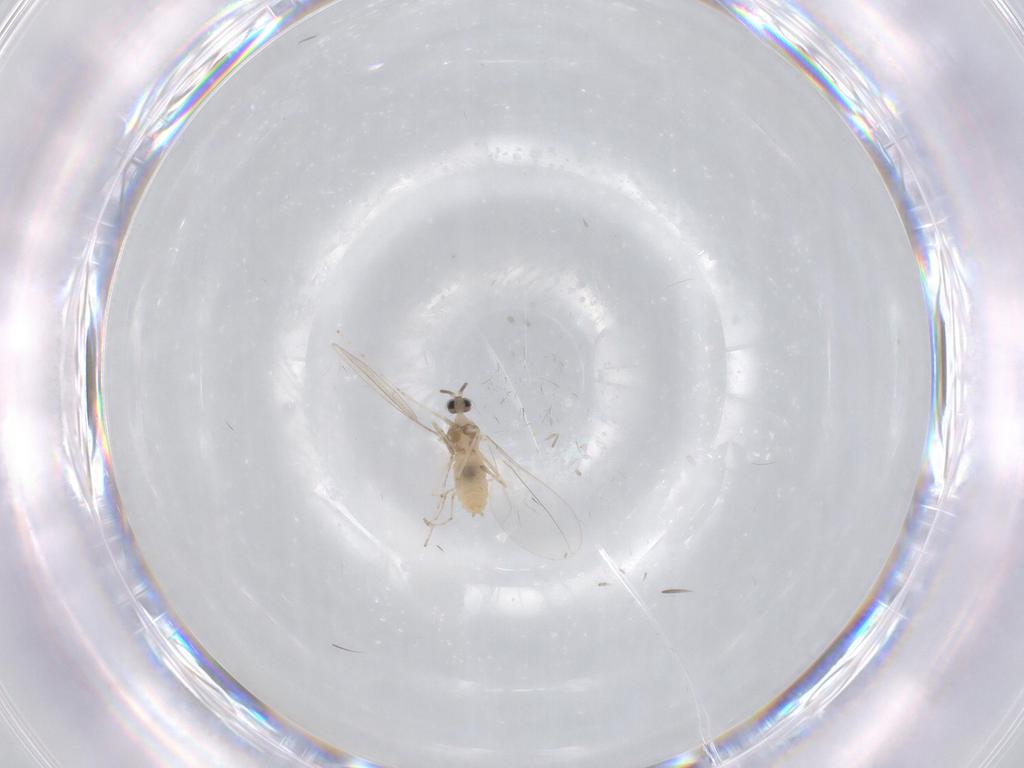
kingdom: Animalia
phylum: Arthropoda
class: Insecta
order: Diptera
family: Cecidomyiidae
